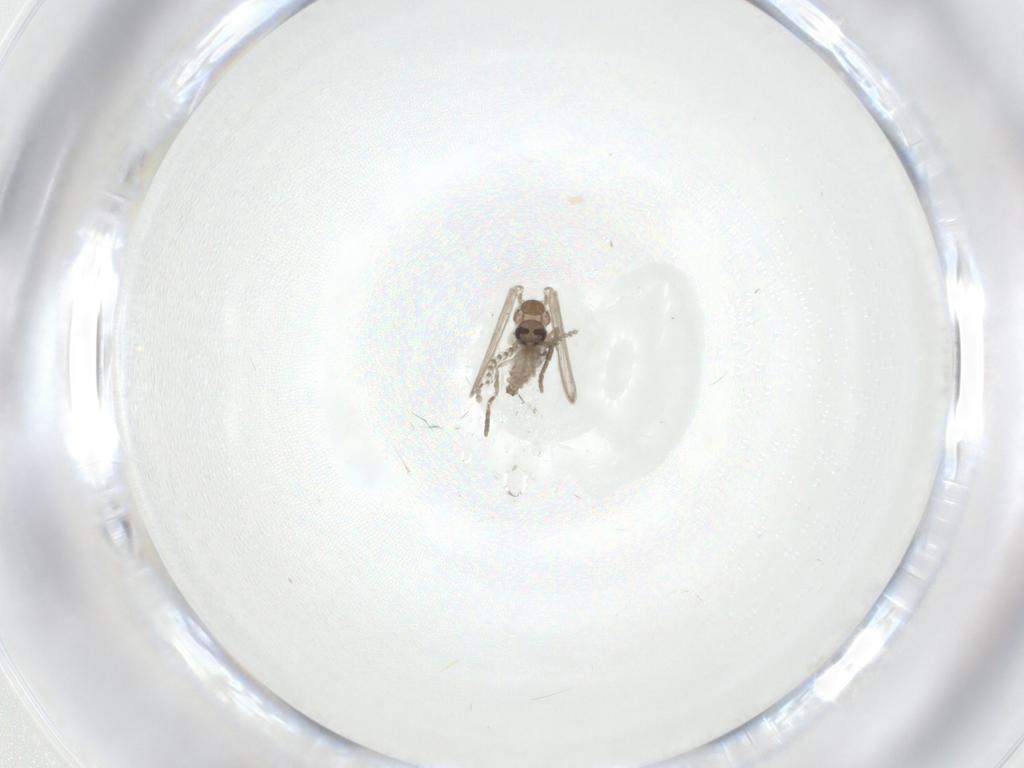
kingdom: Animalia
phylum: Arthropoda
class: Insecta
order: Diptera
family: Psychodidae
